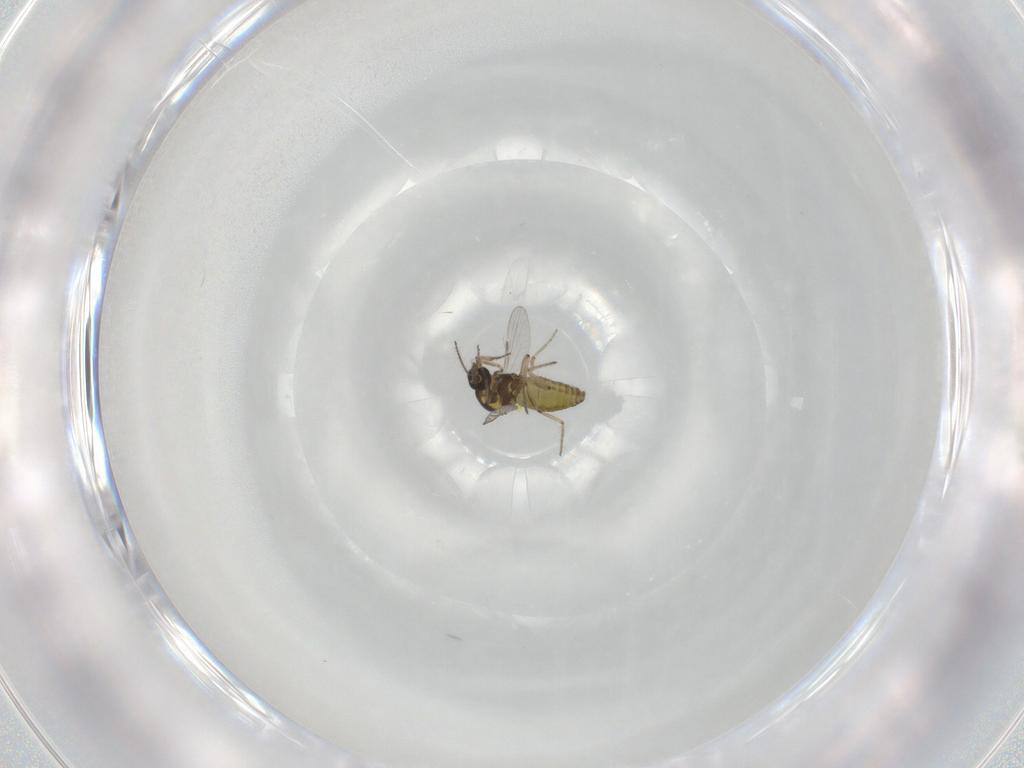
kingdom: Animalia
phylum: Arthropoda
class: Insecta
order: Diptera
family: Ceratopogonidae
